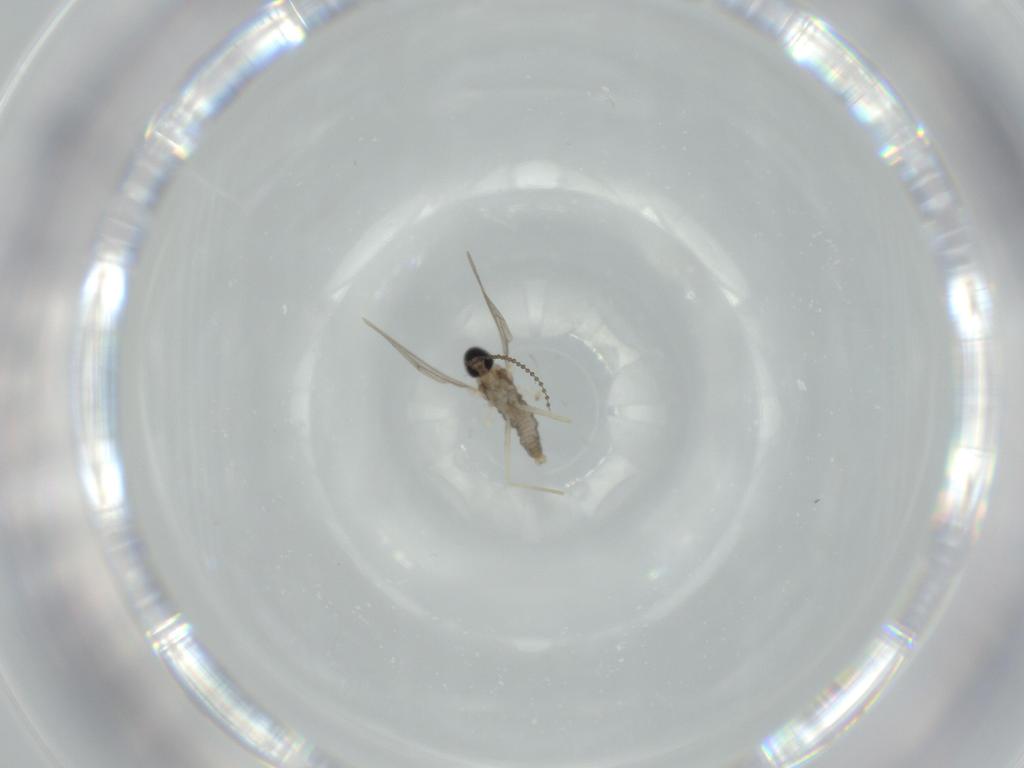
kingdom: Animalia
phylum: Arthropoda
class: Insecta
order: Diptera
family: Cecidomyiidae
